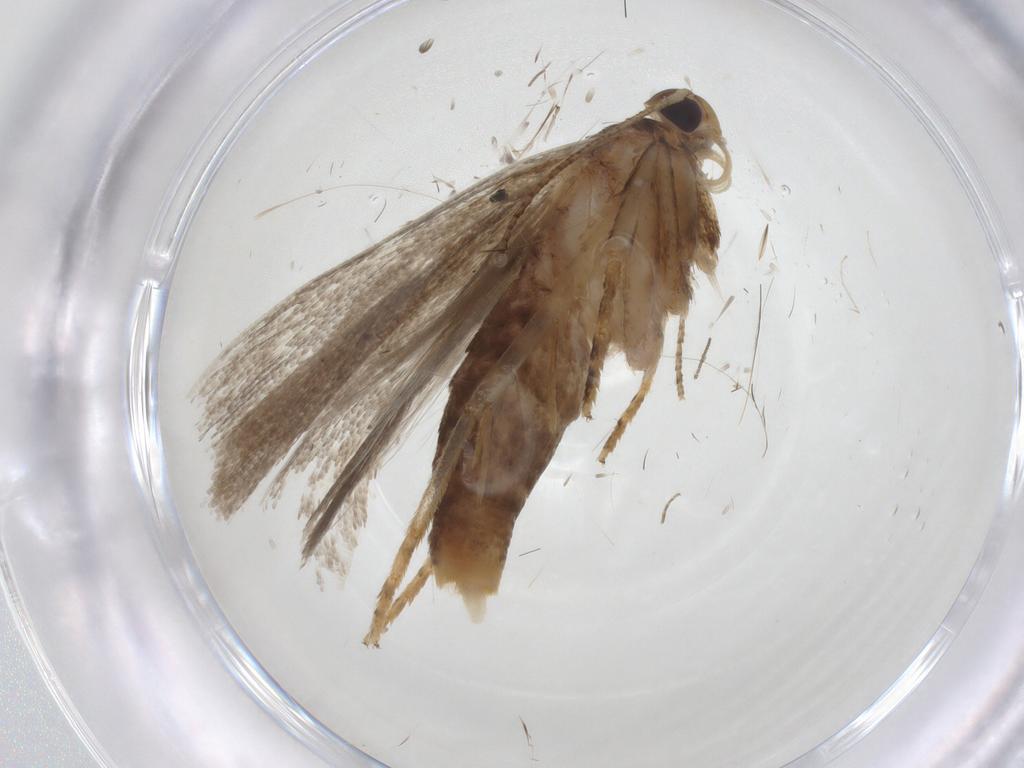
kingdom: Animalia
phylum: Arthropoda
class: Insecta
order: Lepidoptera
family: Gelechiidae
